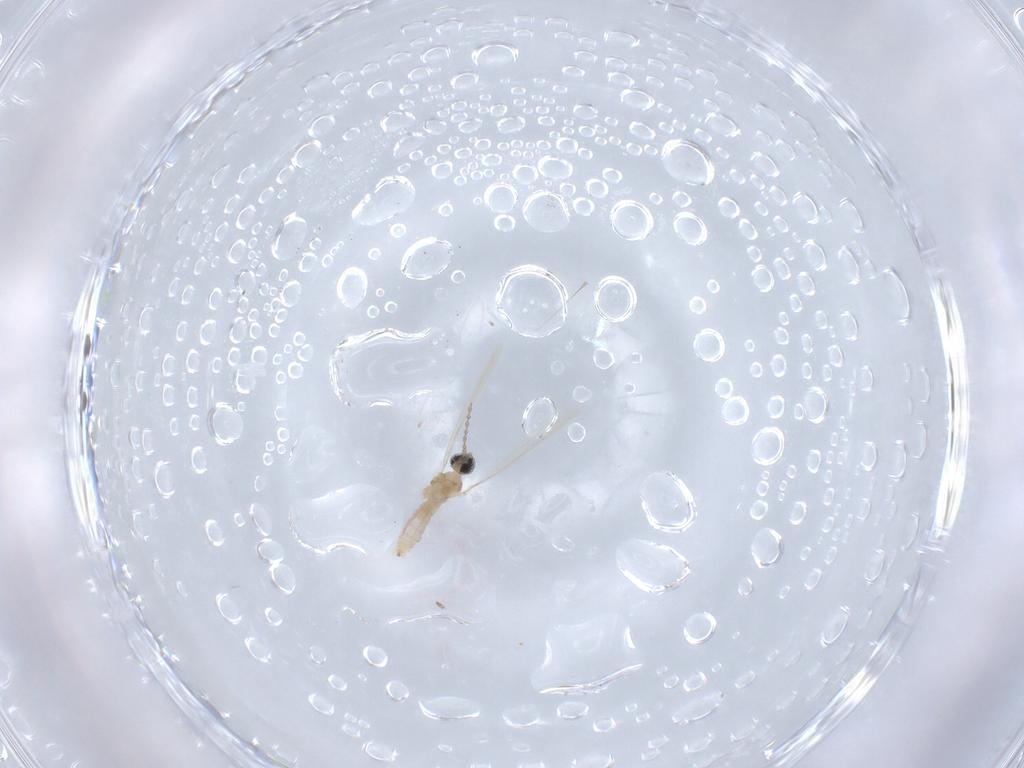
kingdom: Animalia
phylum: Arthropoda
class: Insecta
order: Diptera
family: Cecidomyiidae
